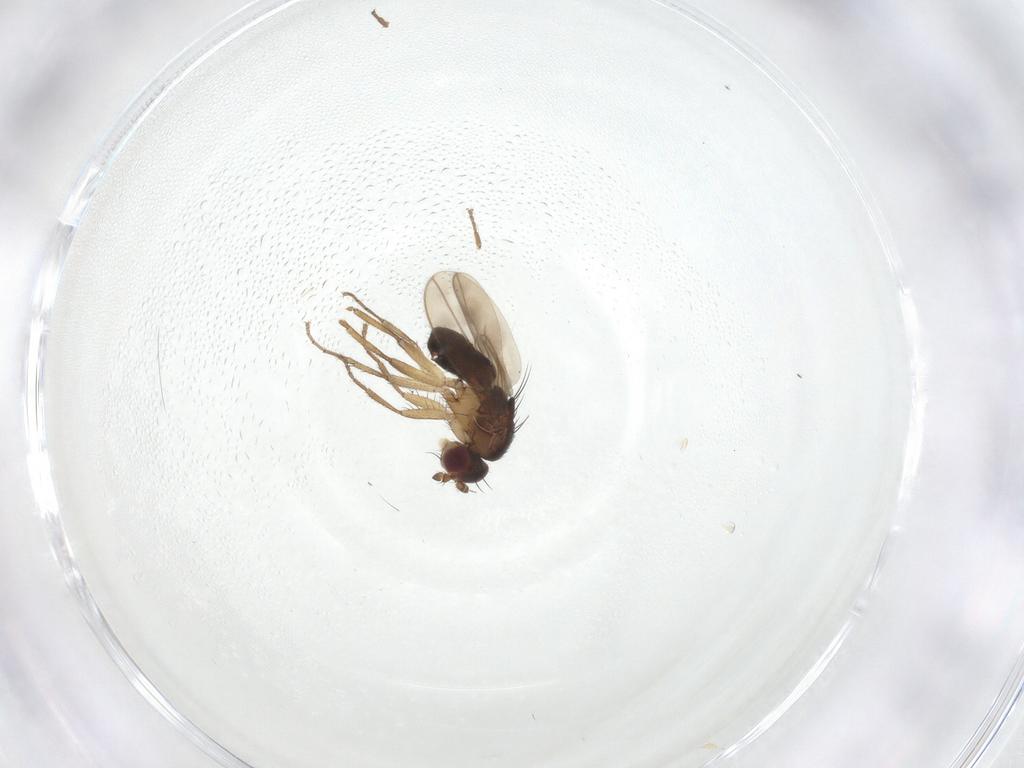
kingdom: Animalia
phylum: Arthropoda
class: Insecta
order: Diptera
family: Sphaeroceridae
